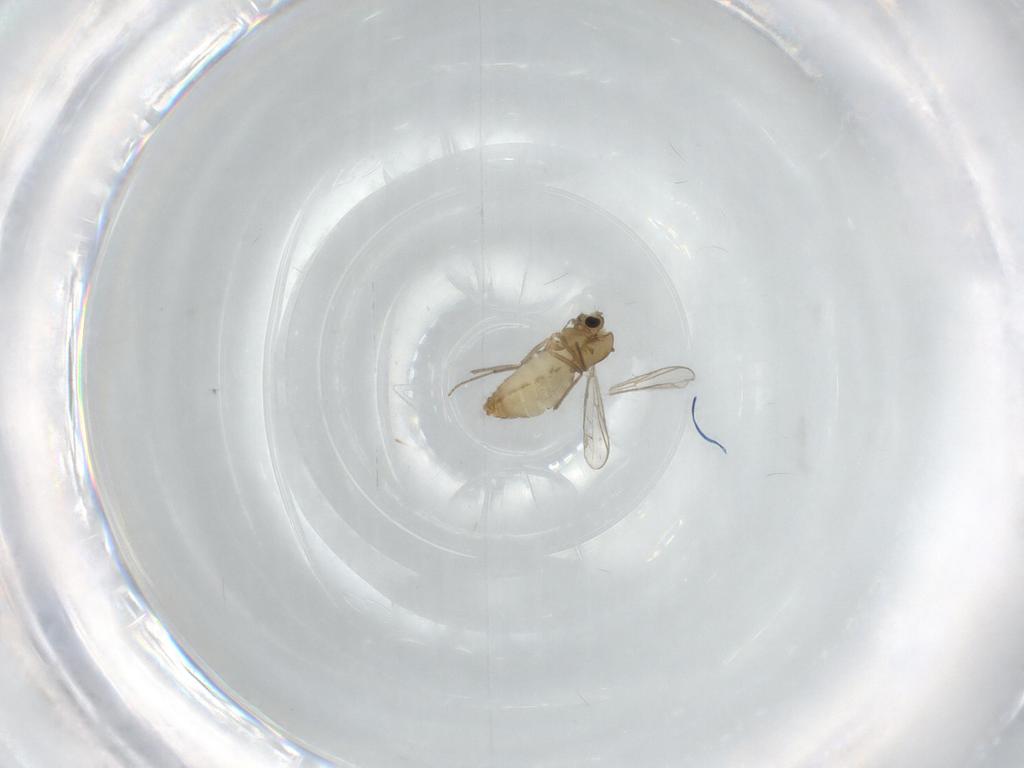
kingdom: Animalia
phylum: Arthropoda
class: Insecta
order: Diptera
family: Chironomidae
